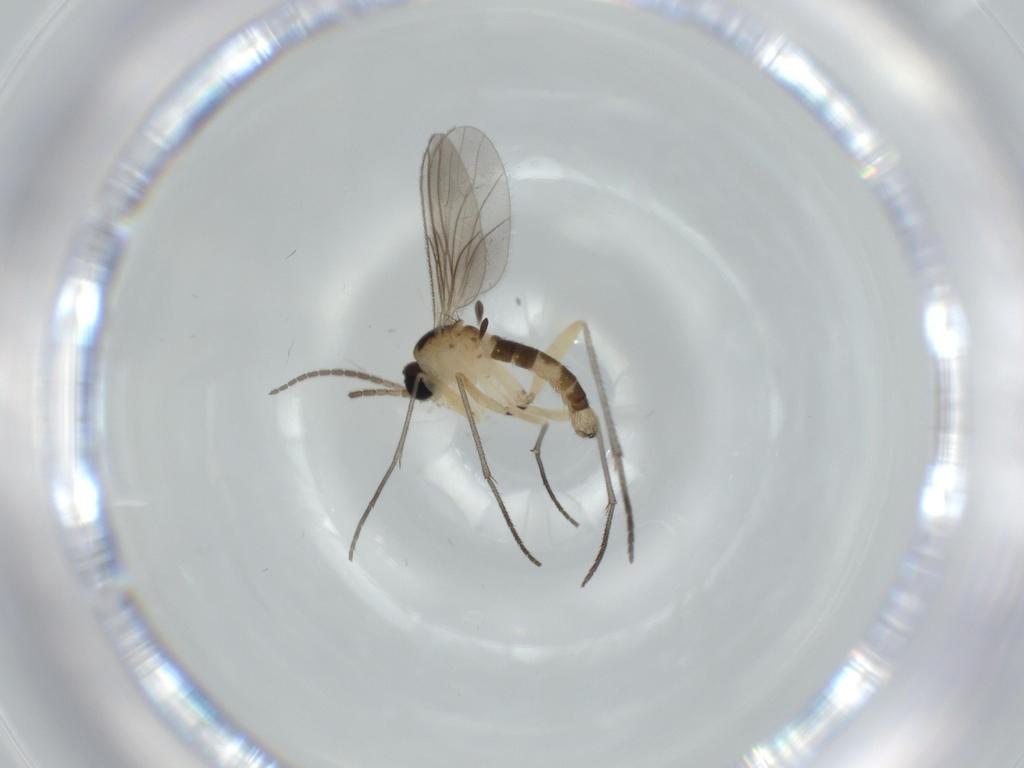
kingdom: Animalia
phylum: Arthropoda
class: Insecta
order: Diptera
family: Sciaridae
